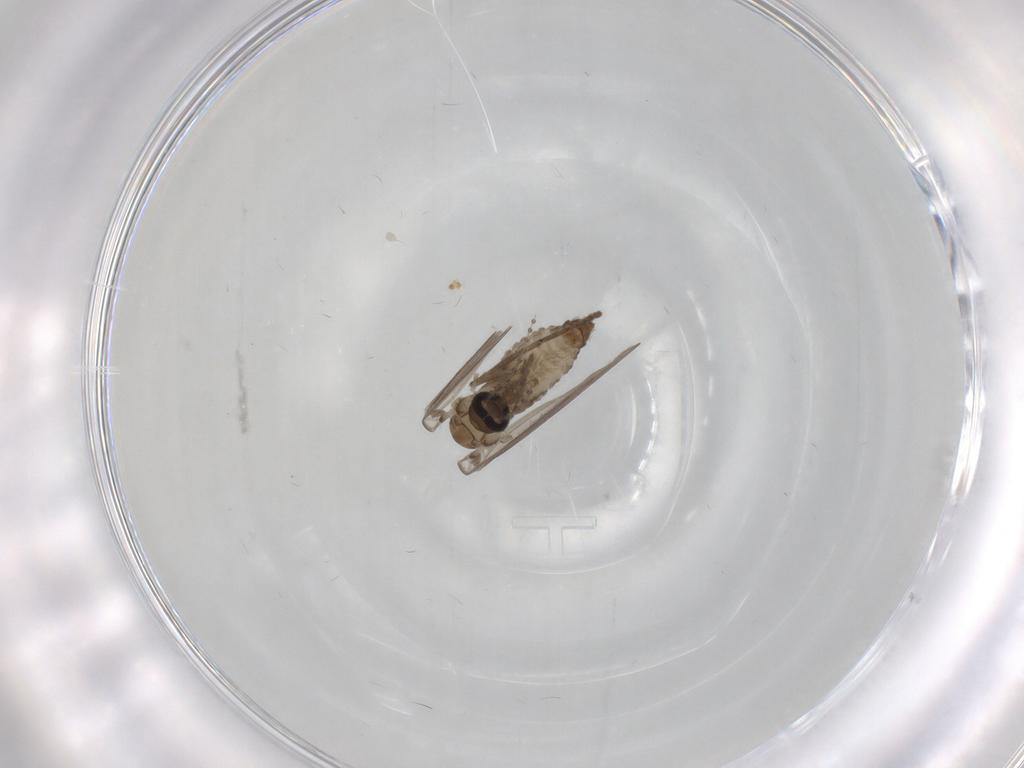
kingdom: Animalia
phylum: Arthropoda
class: Insecta
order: Diptera
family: Psychodidae
